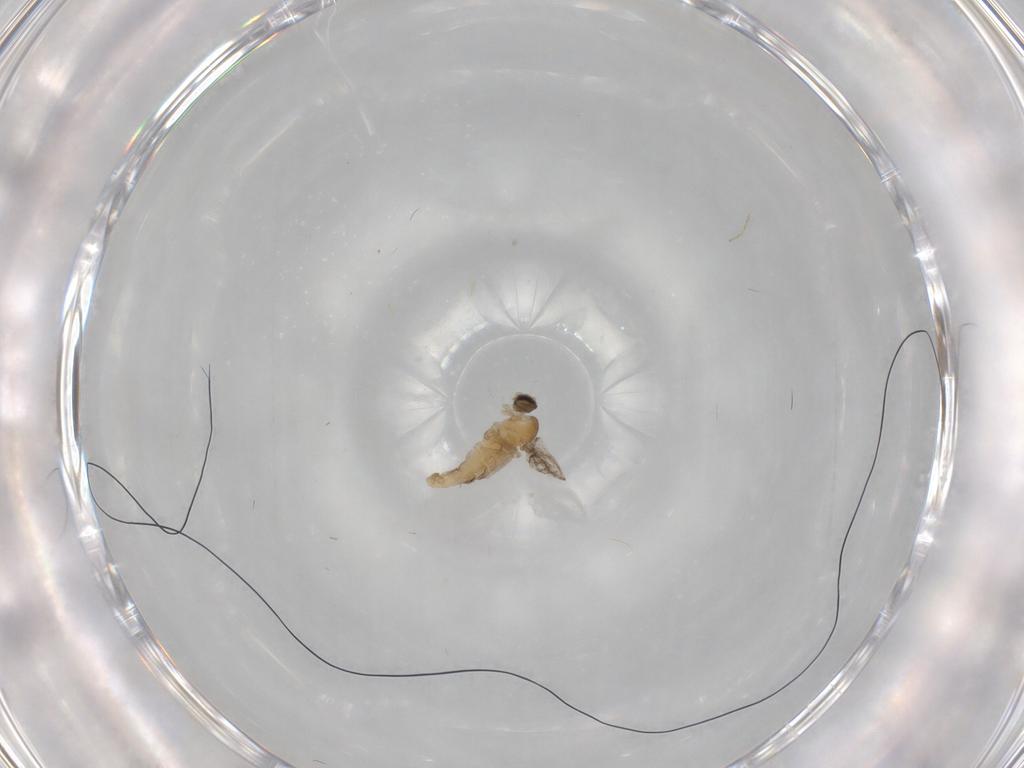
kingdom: Animalia
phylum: Arthropoda
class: Insecta
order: Diptera
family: Cecidomyiidae
